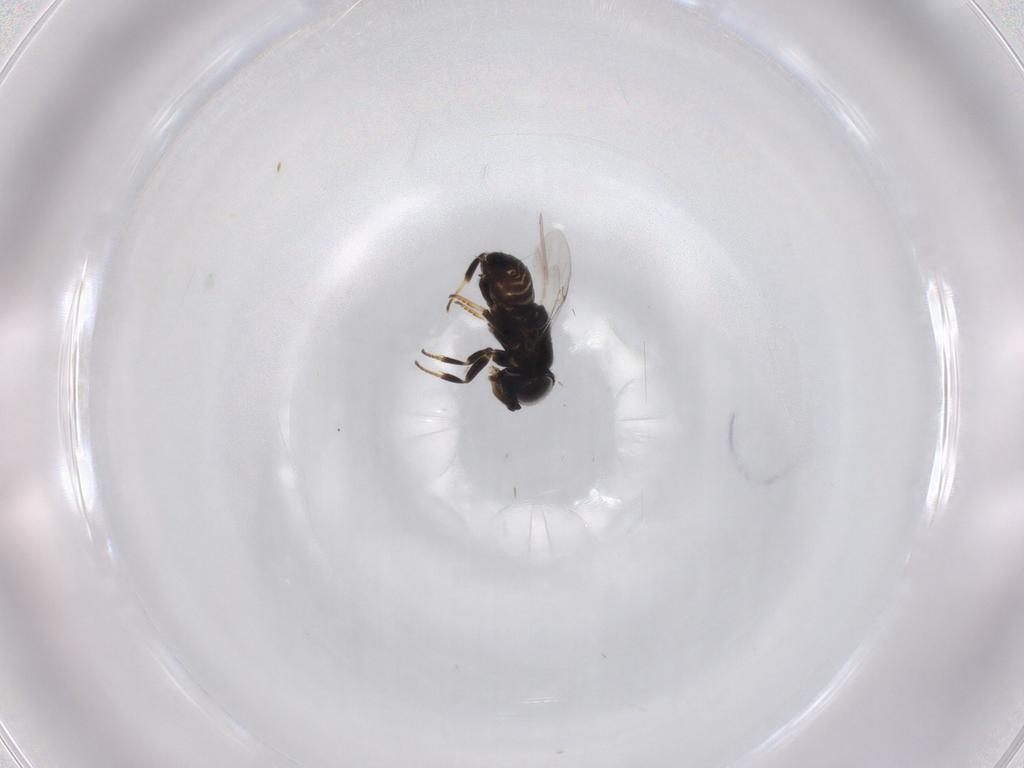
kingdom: Animalia
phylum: Arthropoda
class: Insecta
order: Hymenoptera
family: Encyrtidae
